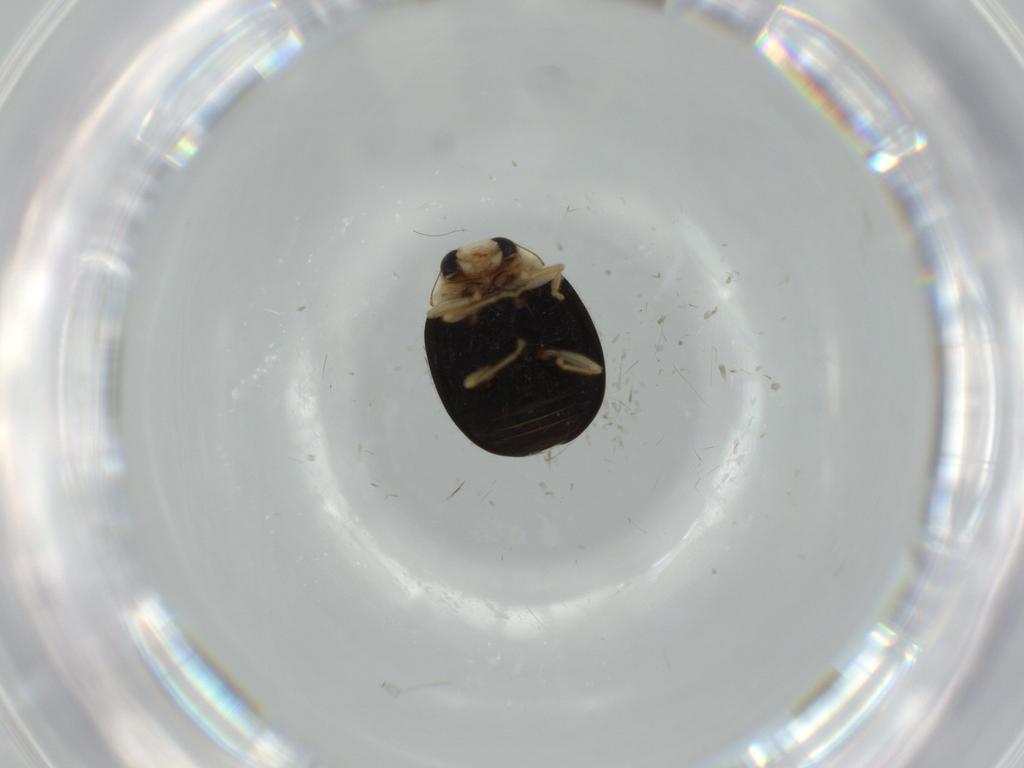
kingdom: Animalia
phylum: Arthropoda
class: Insecta
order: Coleoptera
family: Coccinellidae
